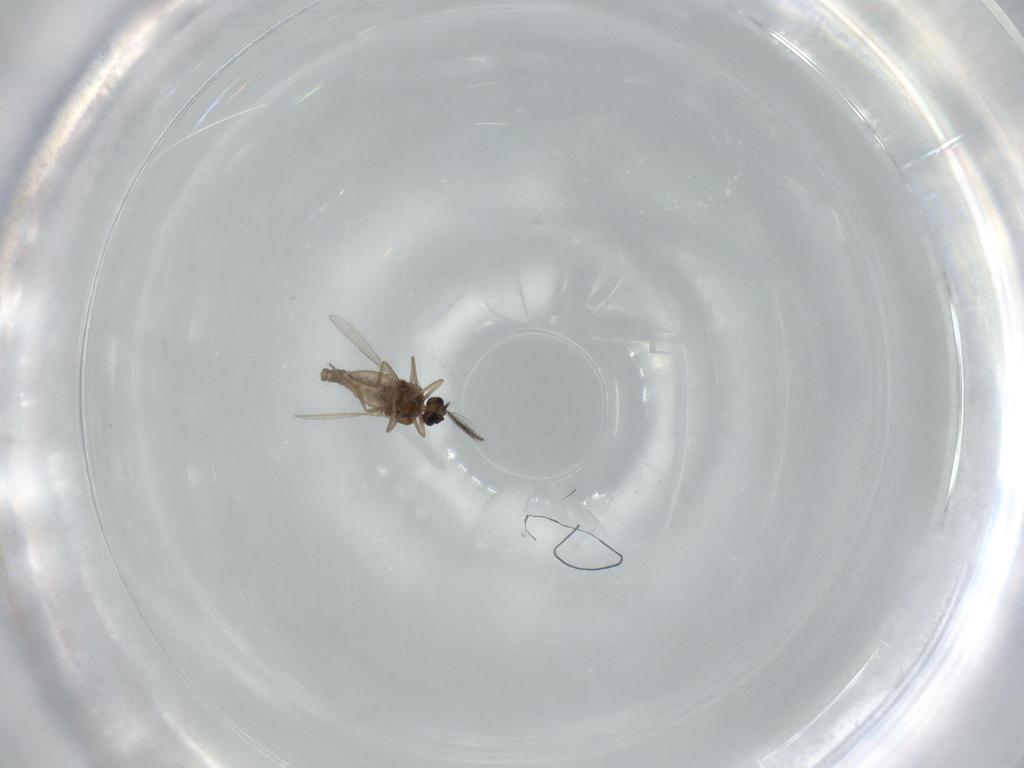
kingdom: Animalia
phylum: Arthropoda
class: Insecta
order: Diptera
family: Ceratopogonidae
